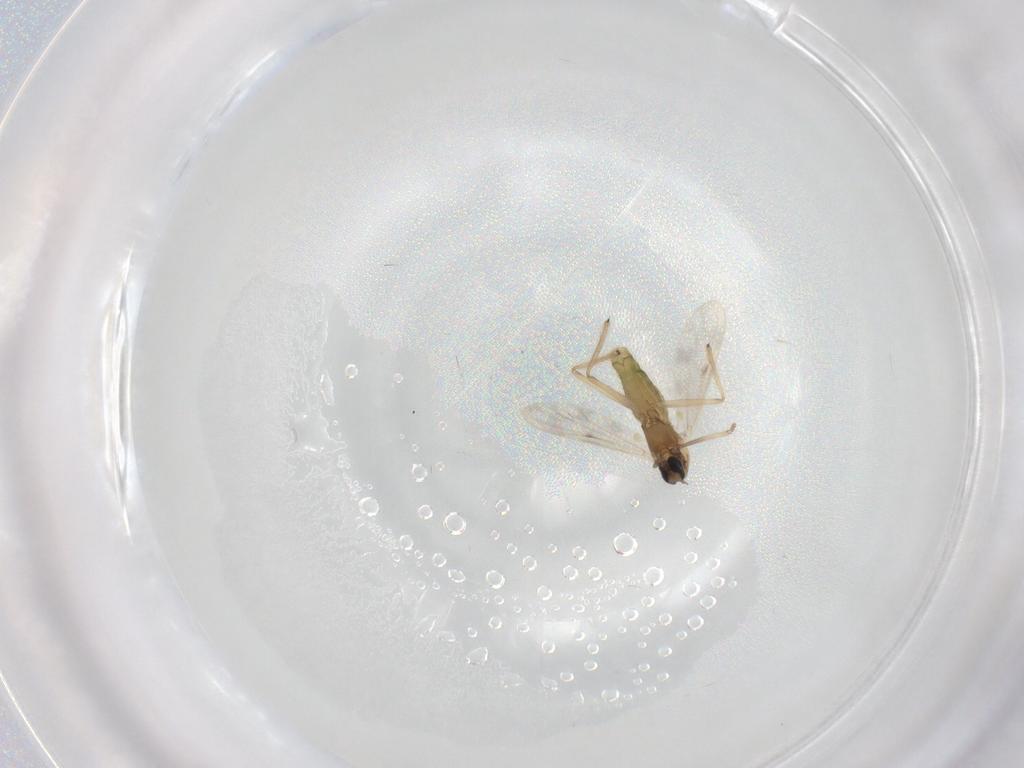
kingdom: Animalia
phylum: Arthropoda
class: Insecta
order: Diptera
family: Chironomidae
